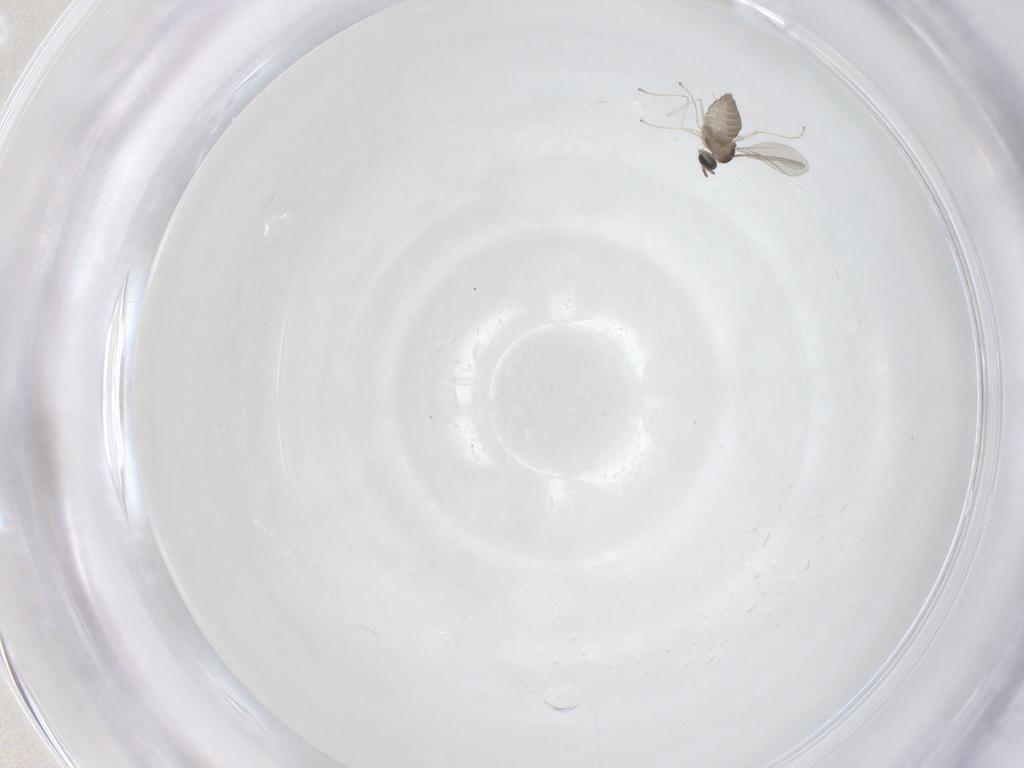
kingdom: Animalia
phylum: Arthropoda
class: Insecta
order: Diptera
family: Cecidomyiidae
